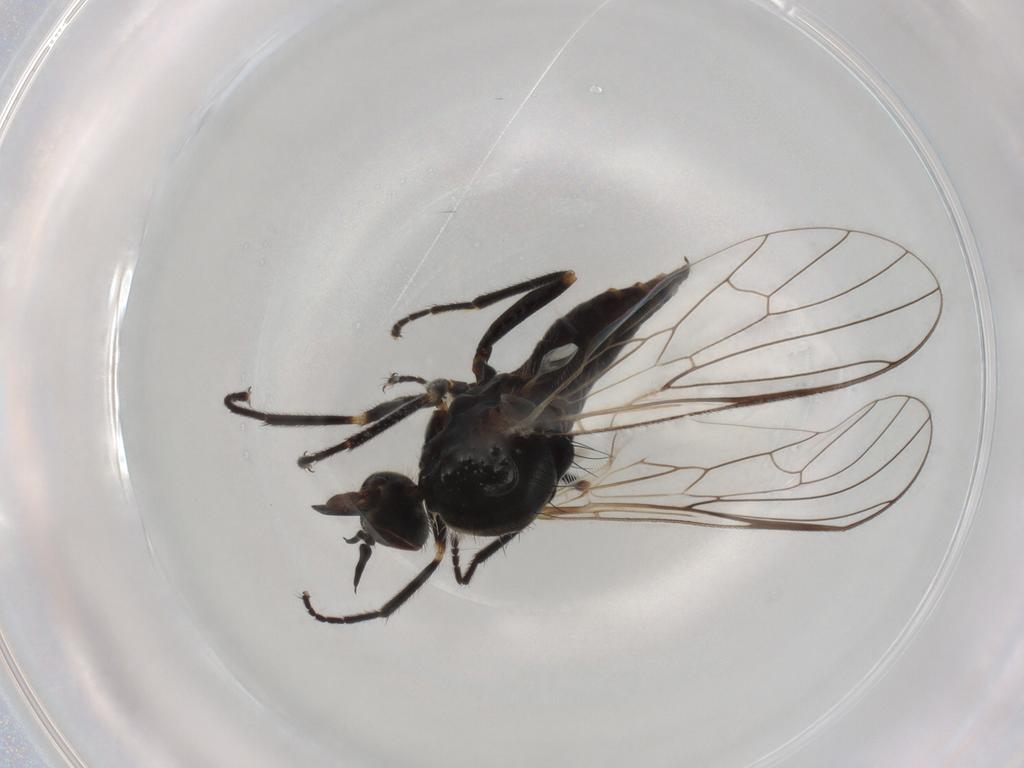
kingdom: Animalia
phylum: Arthropoda
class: Insecta
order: Diptera
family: Empididae
